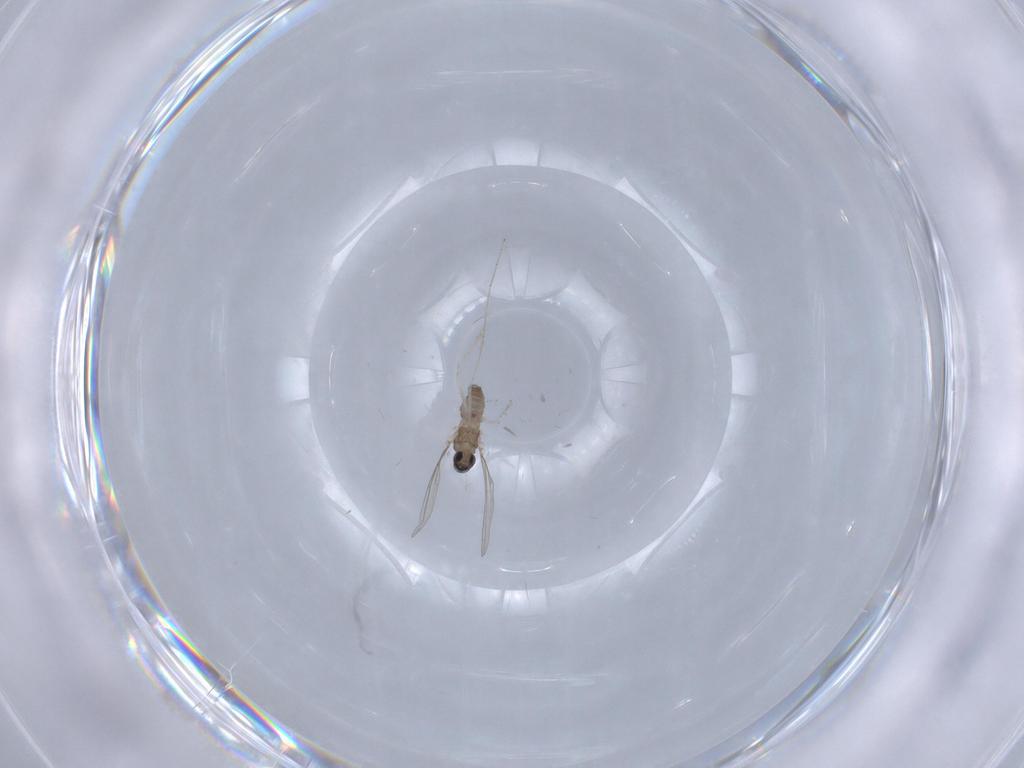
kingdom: Animalia
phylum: Arthropoda
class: Insecta
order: Diptera
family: Cecidomyiidae
